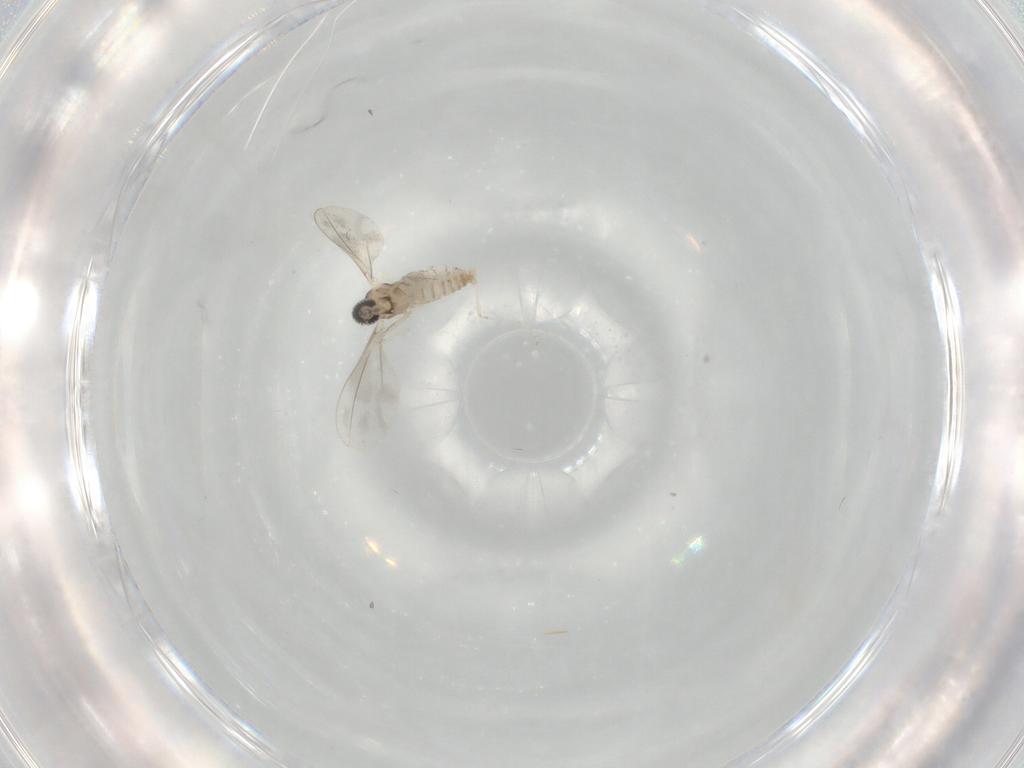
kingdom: Animalia
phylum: Arthropoda
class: Insecta
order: Diptera
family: Cecidomyiidae
